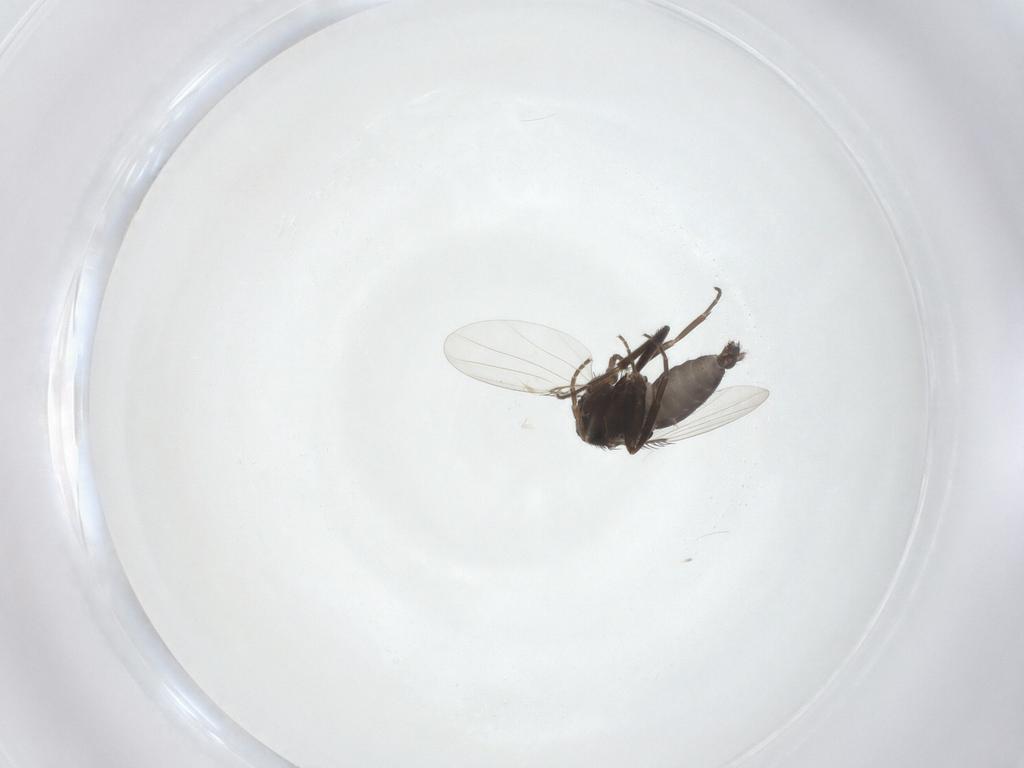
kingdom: Animalia
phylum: Arthropoda
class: Insecta
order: Diptera
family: Phoridae
